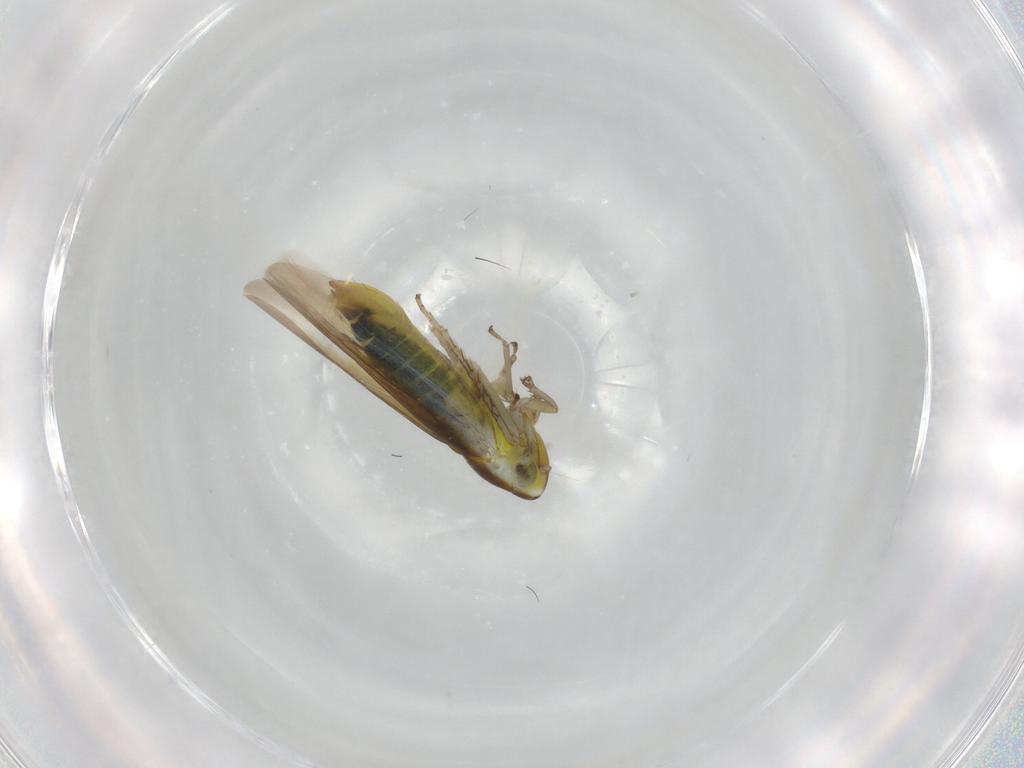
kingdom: Animalia
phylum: Arthropoda
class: Insecta
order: Hemiptera
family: Cicadellidae
